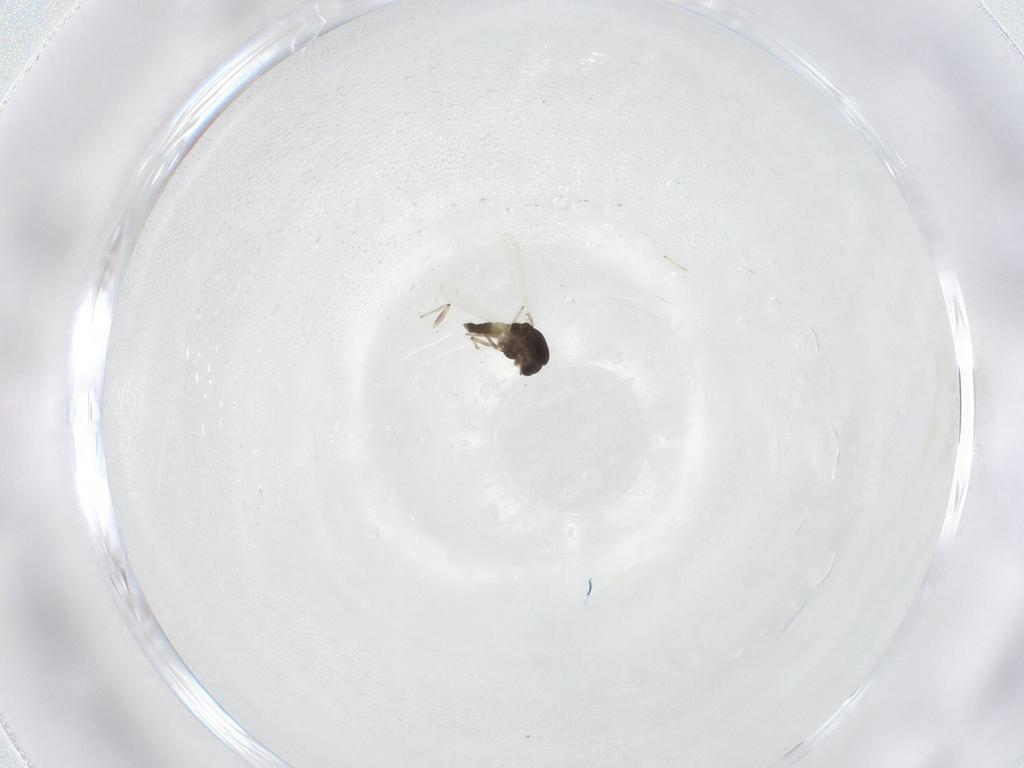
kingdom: Animalia
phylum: Arthropoda
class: Insecta
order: Diptera
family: Chironomidae
